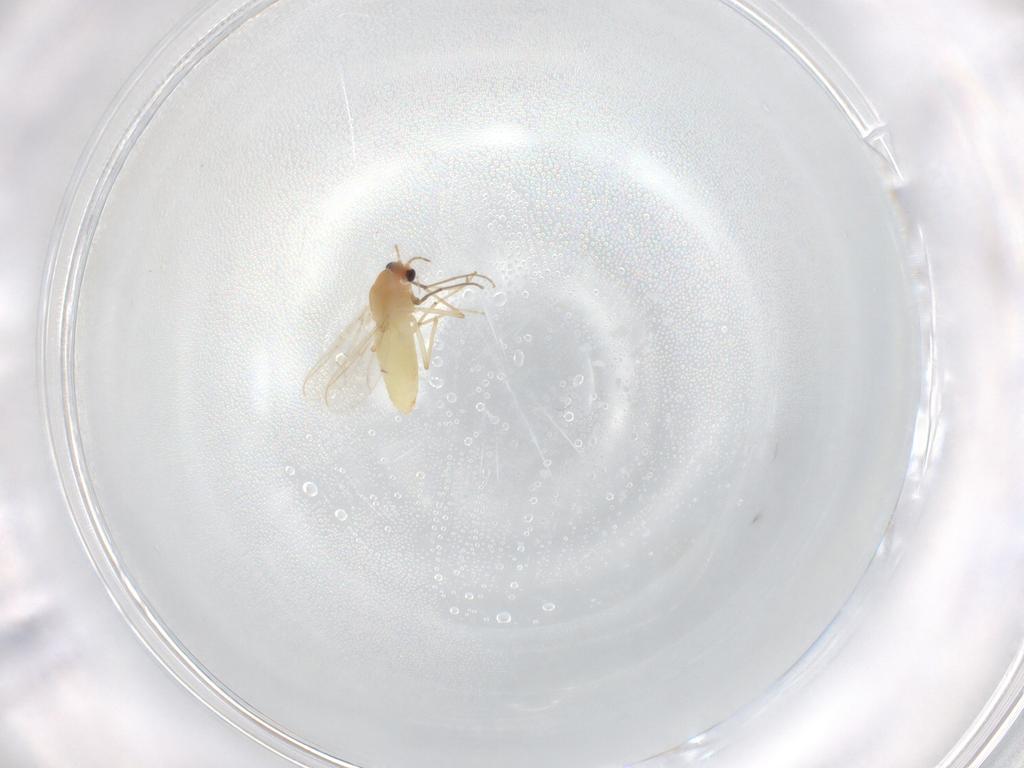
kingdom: Animalia
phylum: Arthropoda
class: Insecta
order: Diptera
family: Chironomidae
